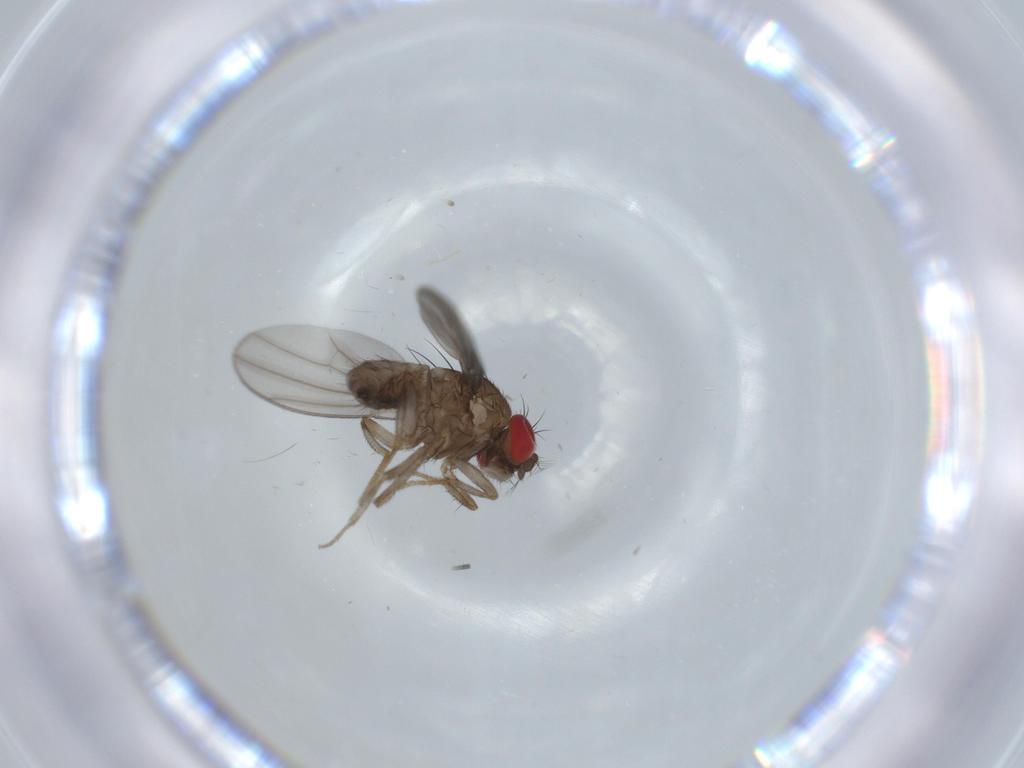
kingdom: Animalia
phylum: Arthropoda
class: Insecta
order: Diptera
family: Drosophilidae
